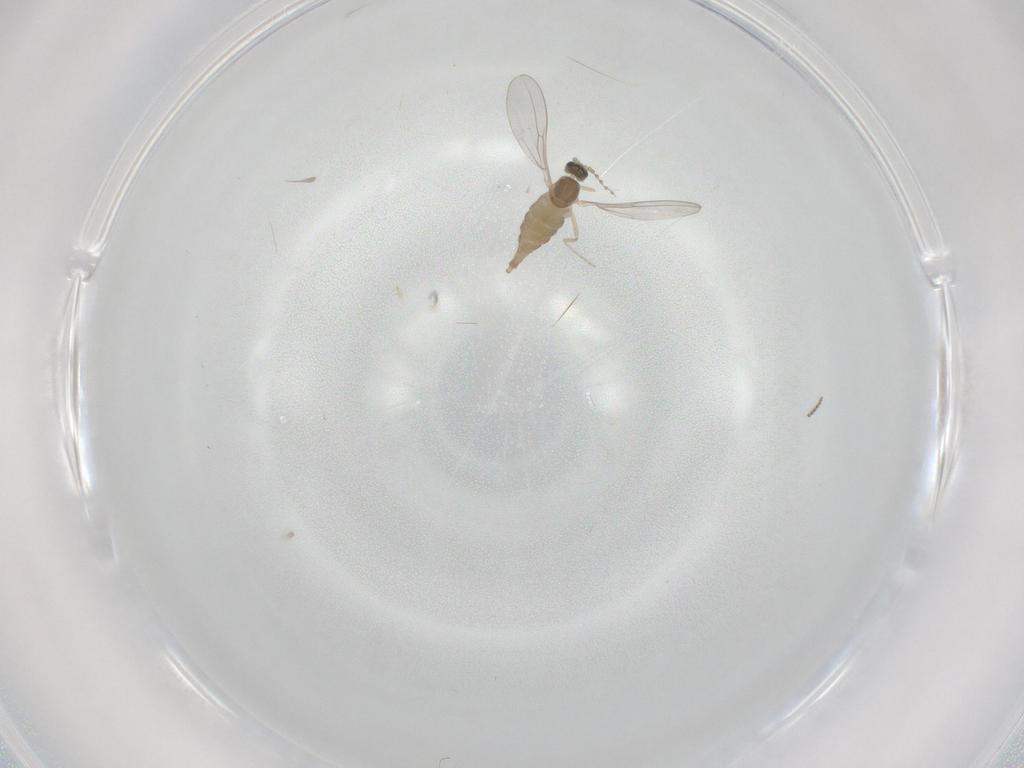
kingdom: Animalia
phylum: Arthropoda
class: Insecta
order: Diptera
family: Cecidomyiidae
